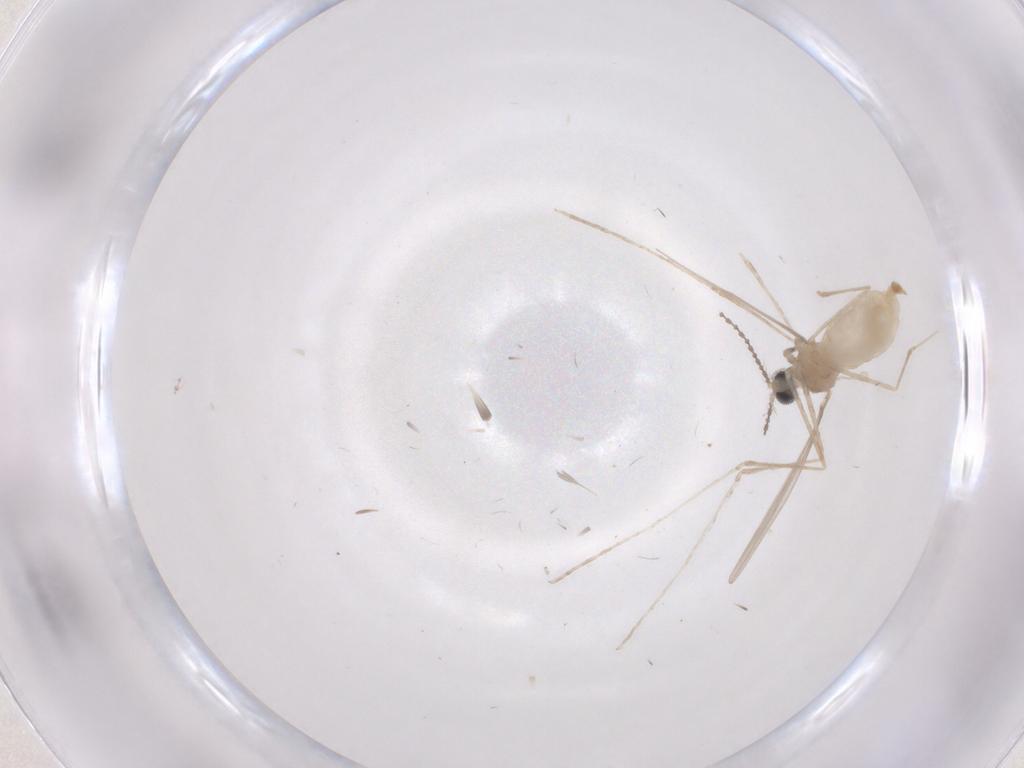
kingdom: Animalia
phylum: Arthropoda
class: Insecta
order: Diptera
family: Cecidomyiidae
